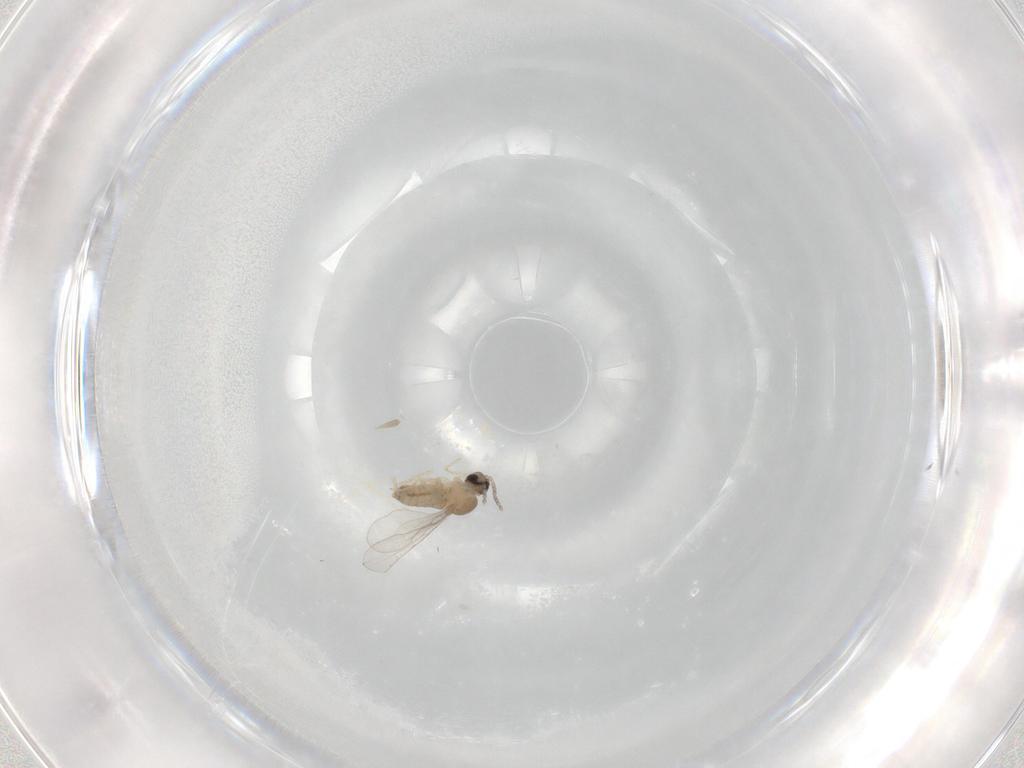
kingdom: Animalia
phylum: Arthropoda
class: Insecta
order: Diptera
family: Cecidomyiidae
